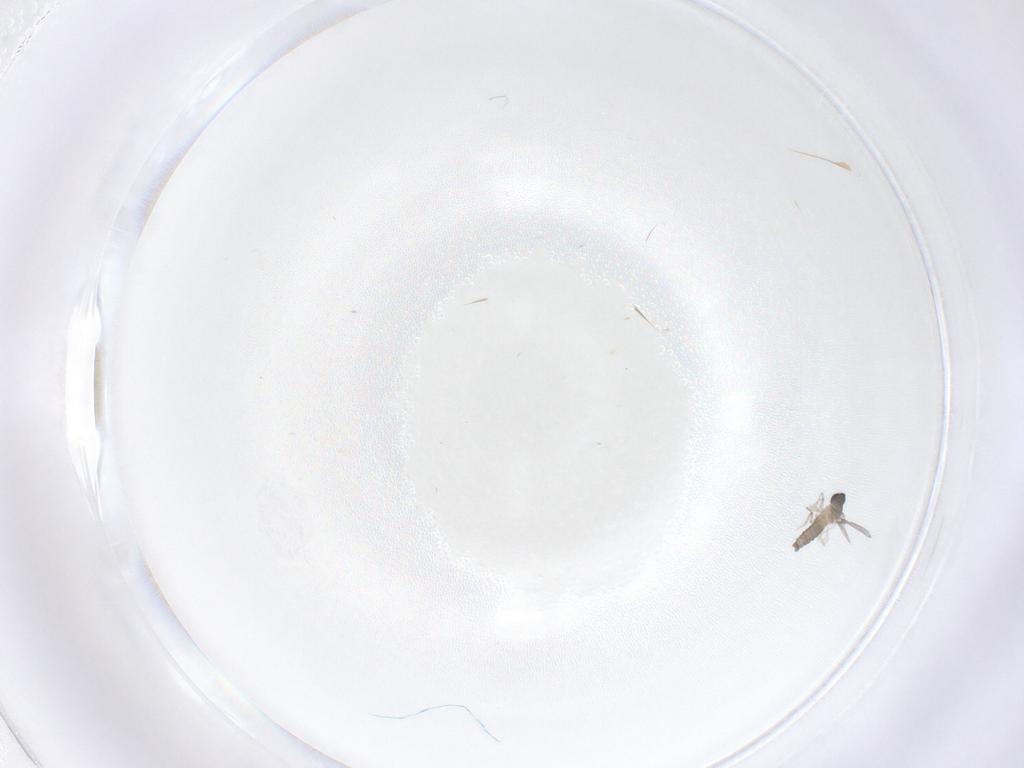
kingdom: Animalia
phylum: Arthropoda
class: Insecta
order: Diptera
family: Cecidomyiidae
